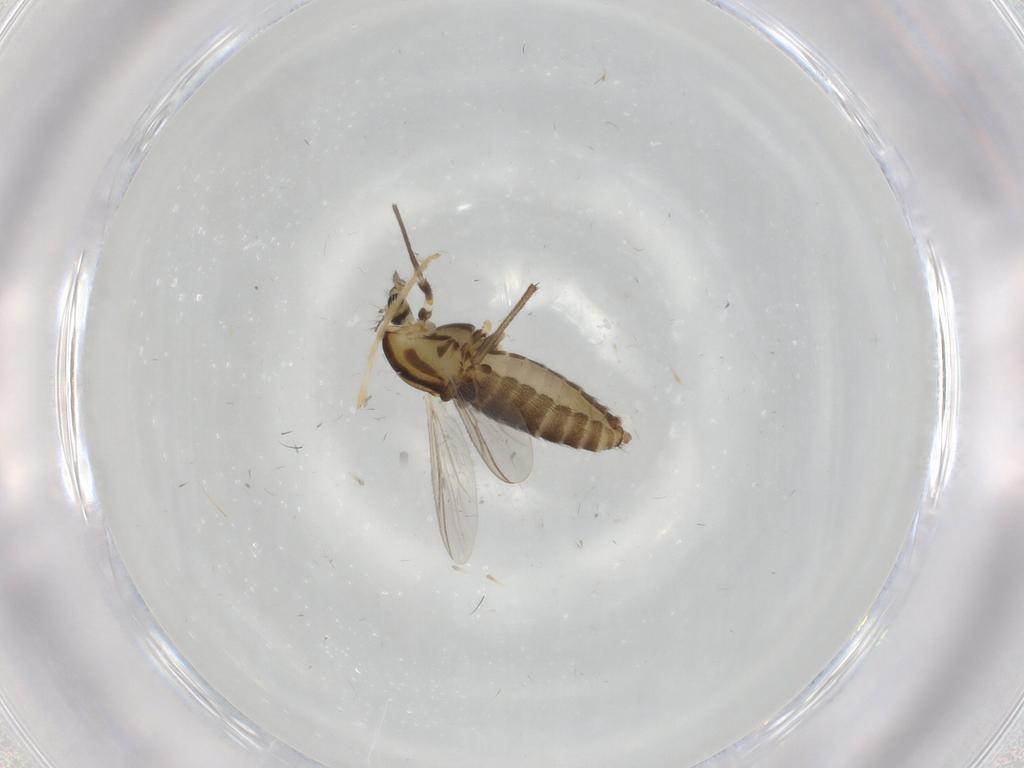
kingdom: Animalia
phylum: Arthropoda
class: Insecta
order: Diptera
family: Chironomidae
